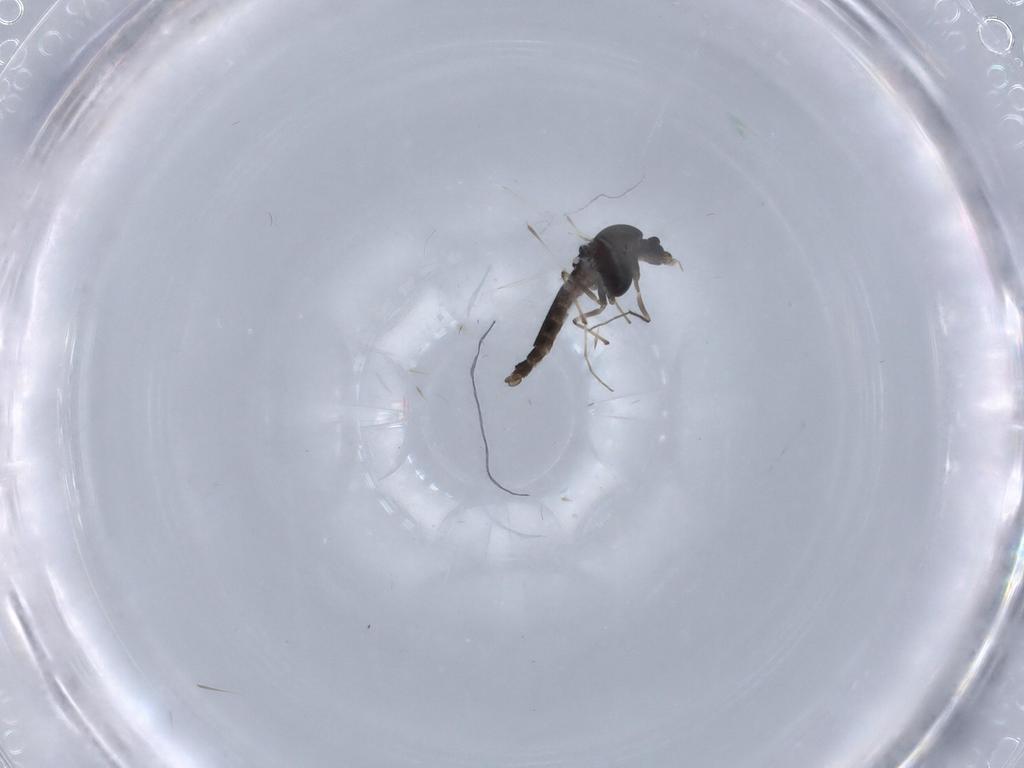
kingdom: Animalia
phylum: Arthropoda
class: Insecta
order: Diptera
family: Chironomidae
